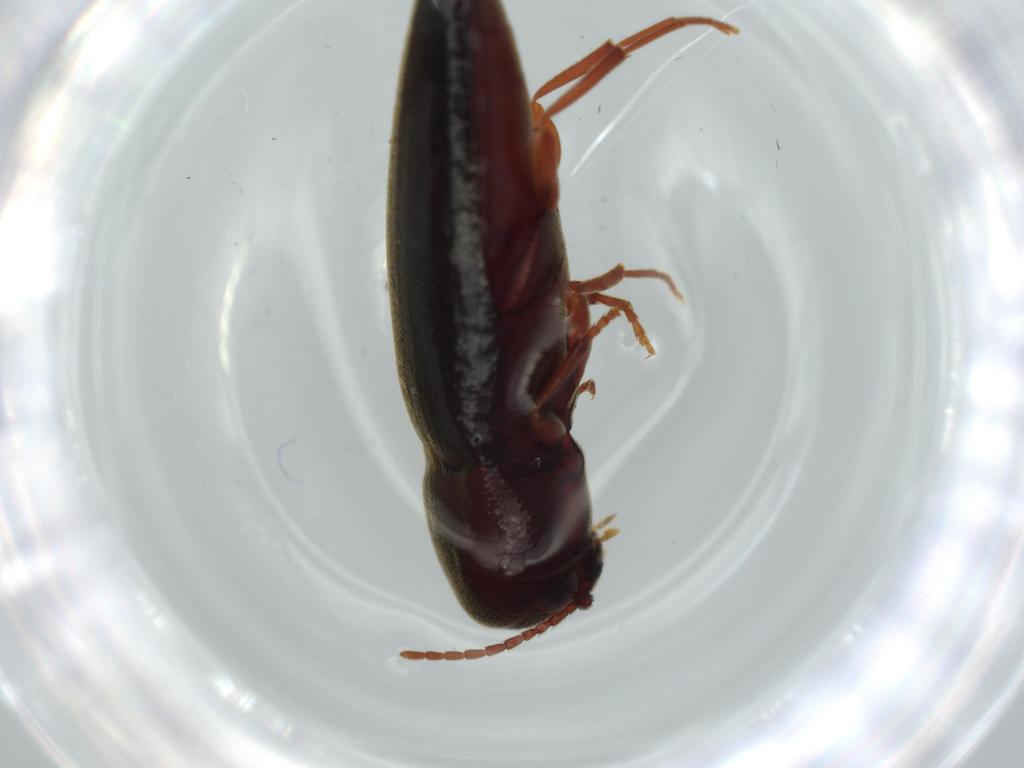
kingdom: Animalia
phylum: Arthropoda
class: Insecta
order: Coleoptera
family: Eucnemidae
